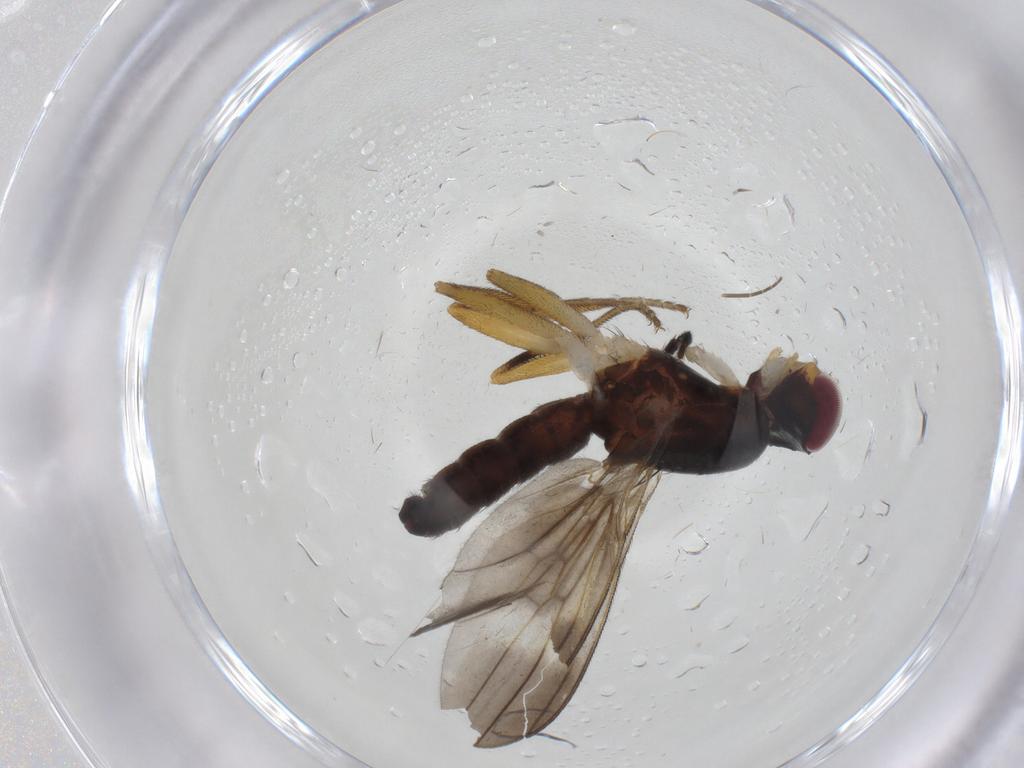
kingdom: Animalia
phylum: Arthropoda
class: Insecta
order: Diptera
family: Clusiidae
